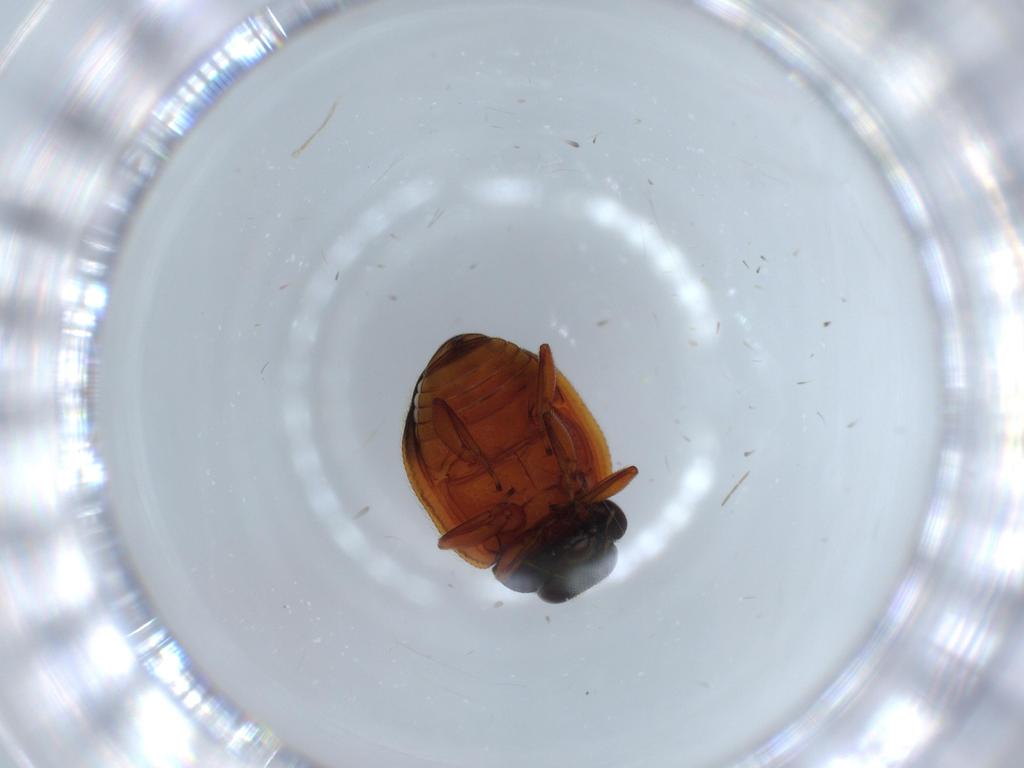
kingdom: Animalia
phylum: Arthropoda
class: Insecta
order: Coleoptera
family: Coccinellidae
